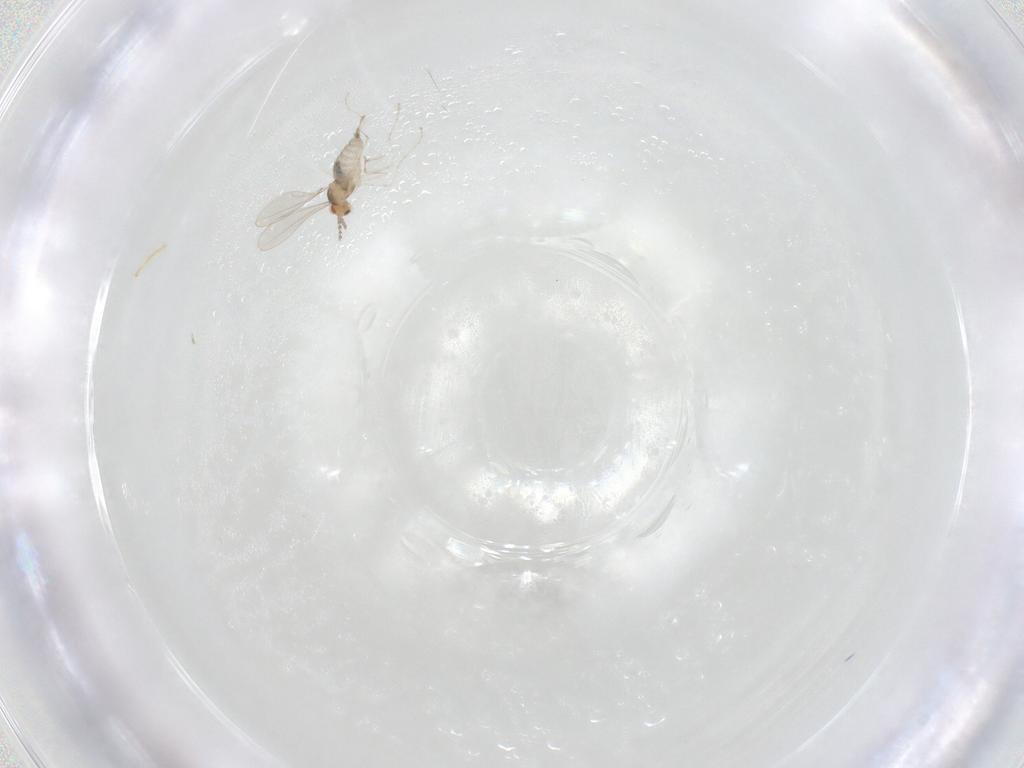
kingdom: Animalia
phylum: Arthropoda
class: Insecta
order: Diptera
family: Cecidomyiidae
